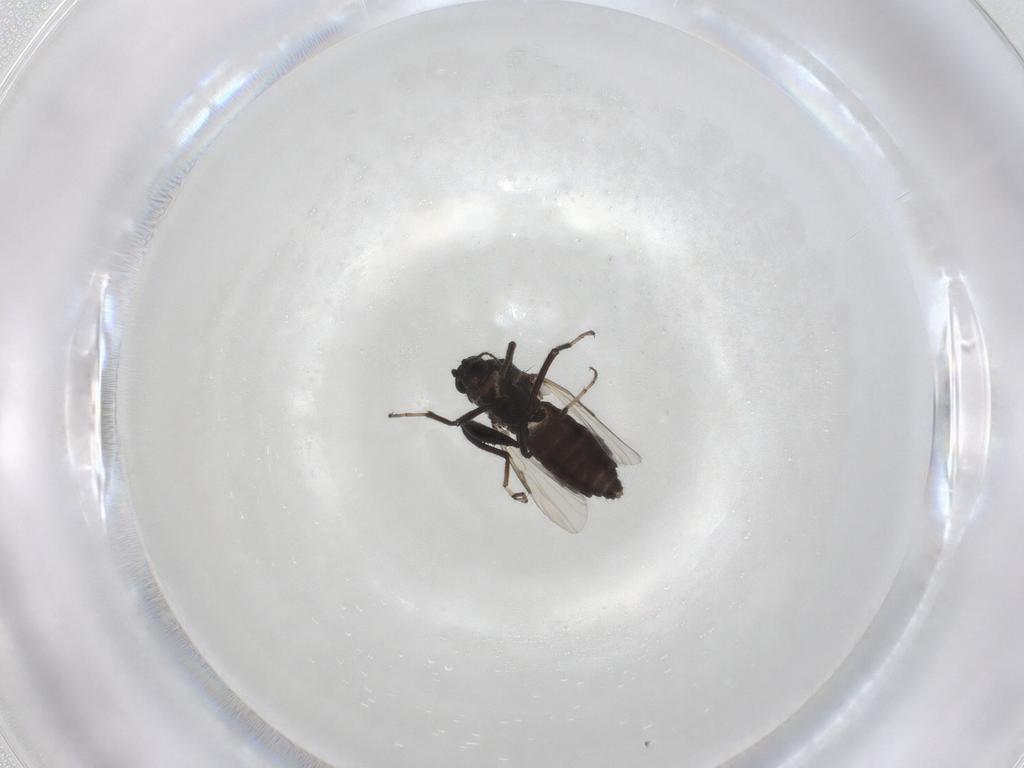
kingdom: Animalia
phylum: Arthropoda
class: Insecta
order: Diptera
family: Ceratopogonidae
